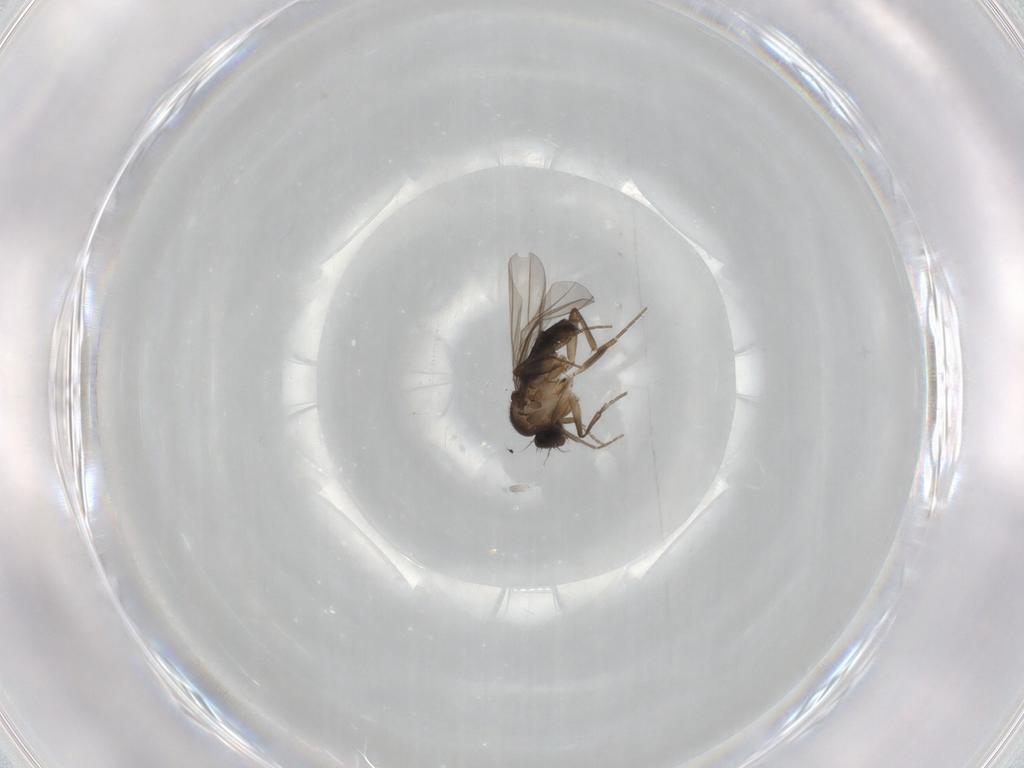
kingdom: Animalia
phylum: Arthropoda
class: Insecta
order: Diptera
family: Phoridae
